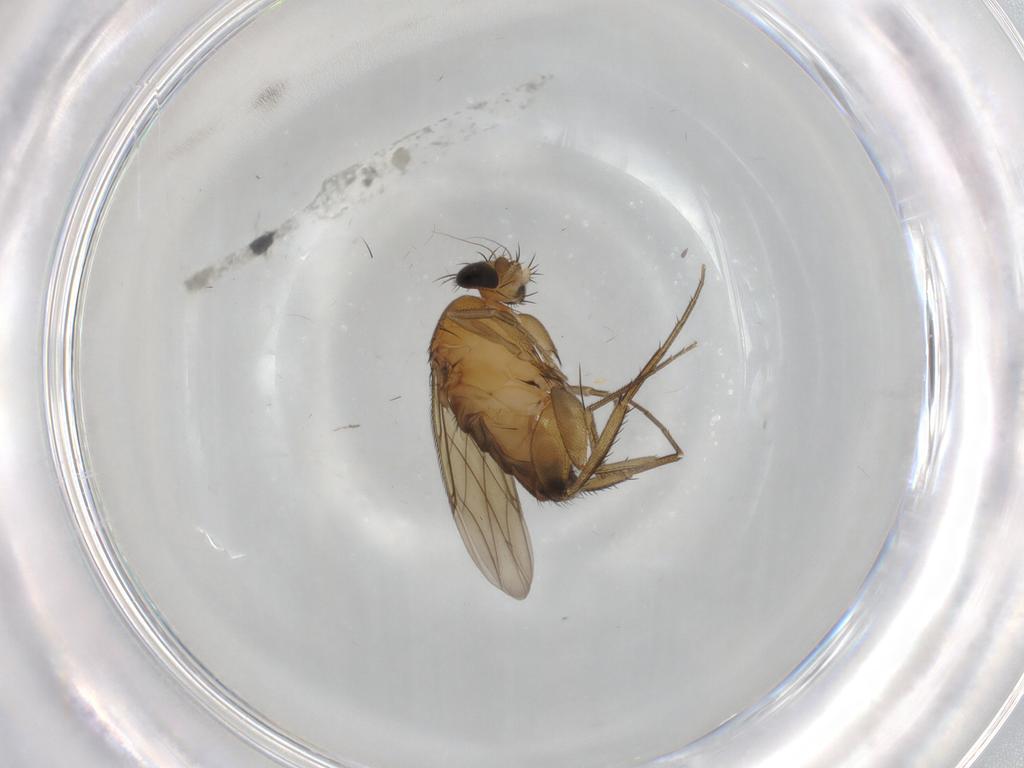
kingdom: Animalia
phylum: Arthropoda
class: Insecta
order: Diptera
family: Phoridae
